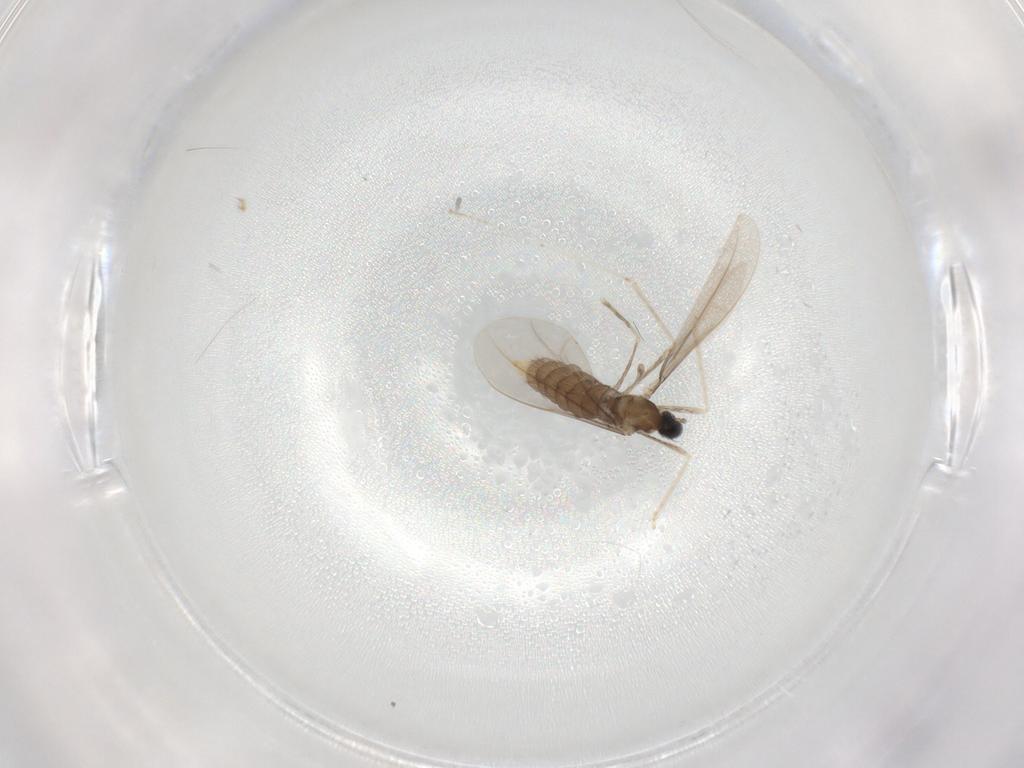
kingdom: Animalia
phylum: Arthropoda
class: Insecta
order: Diptera
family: Cecidomyiidae
